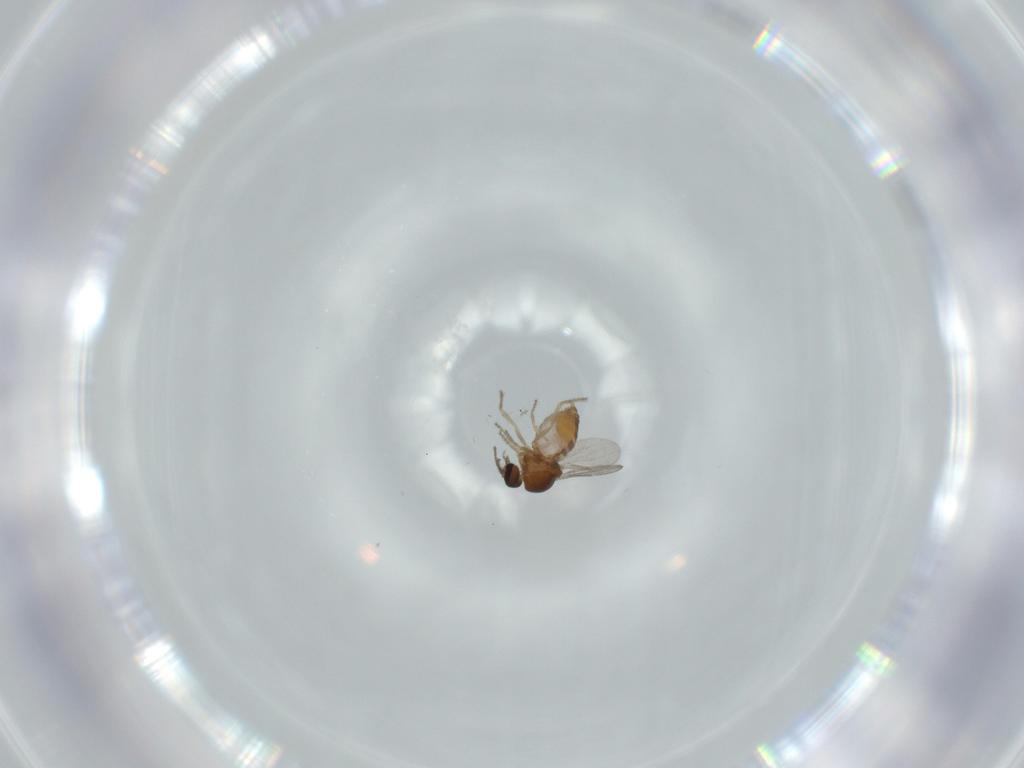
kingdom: Animalia
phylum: Arthropoda
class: Insecta
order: Diptera
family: Ceratopogonidae
